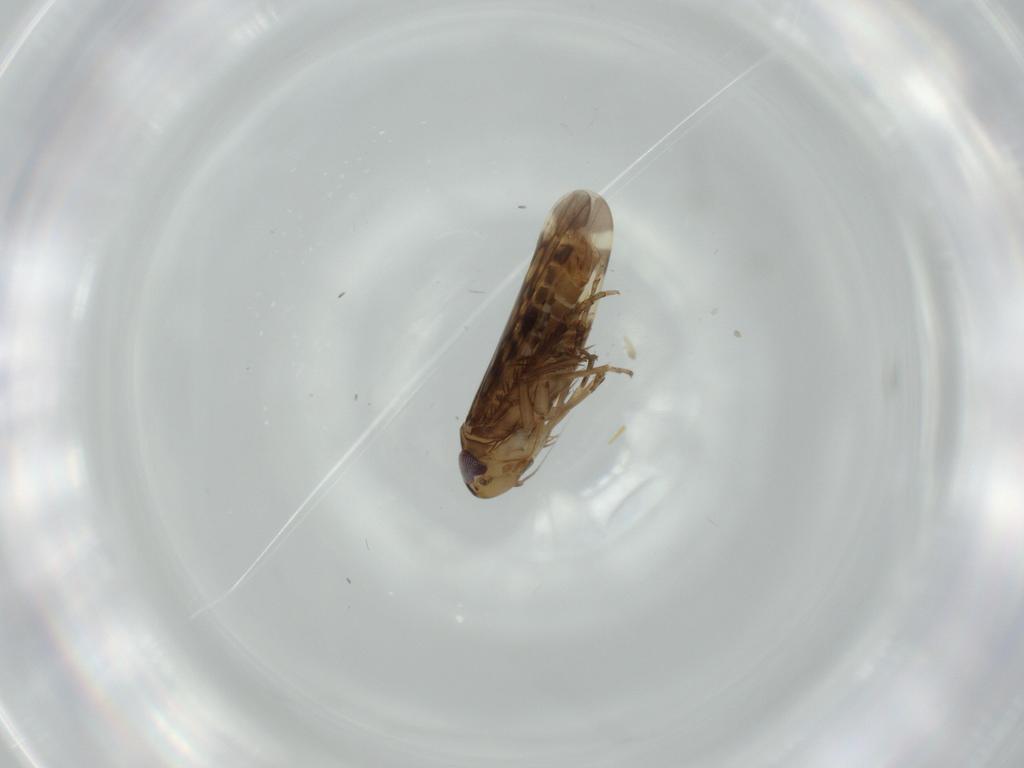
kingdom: Animalia
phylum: Arthropoda
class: Insecta
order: Hemiptera
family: Cicadellidae
